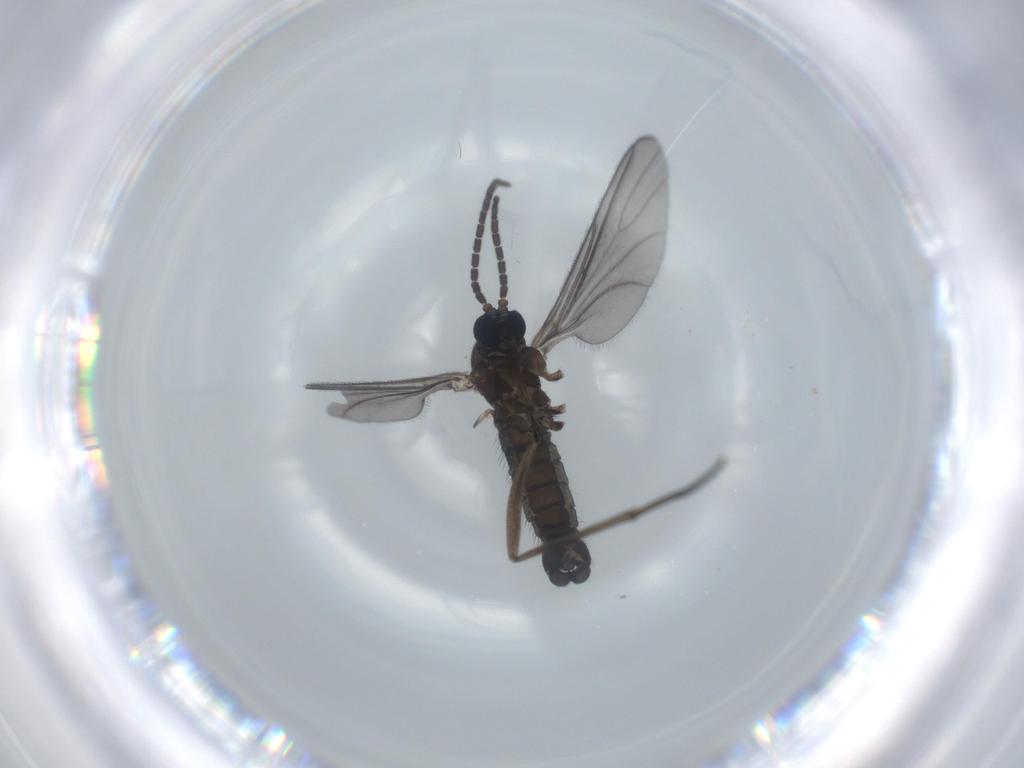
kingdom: Animalia
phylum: Arthropoda
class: Insecta
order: Diptera
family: Sciaridae
